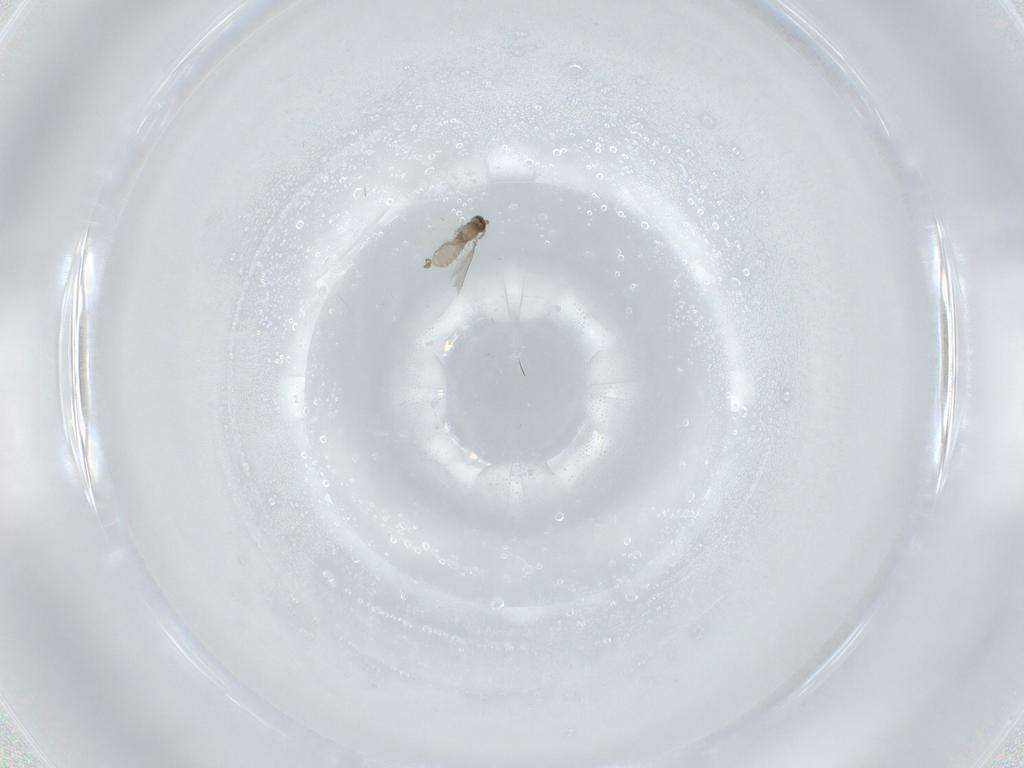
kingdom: Animalia
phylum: Arthropoda
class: Insecta
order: Diptera
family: Cecidomyiidae
